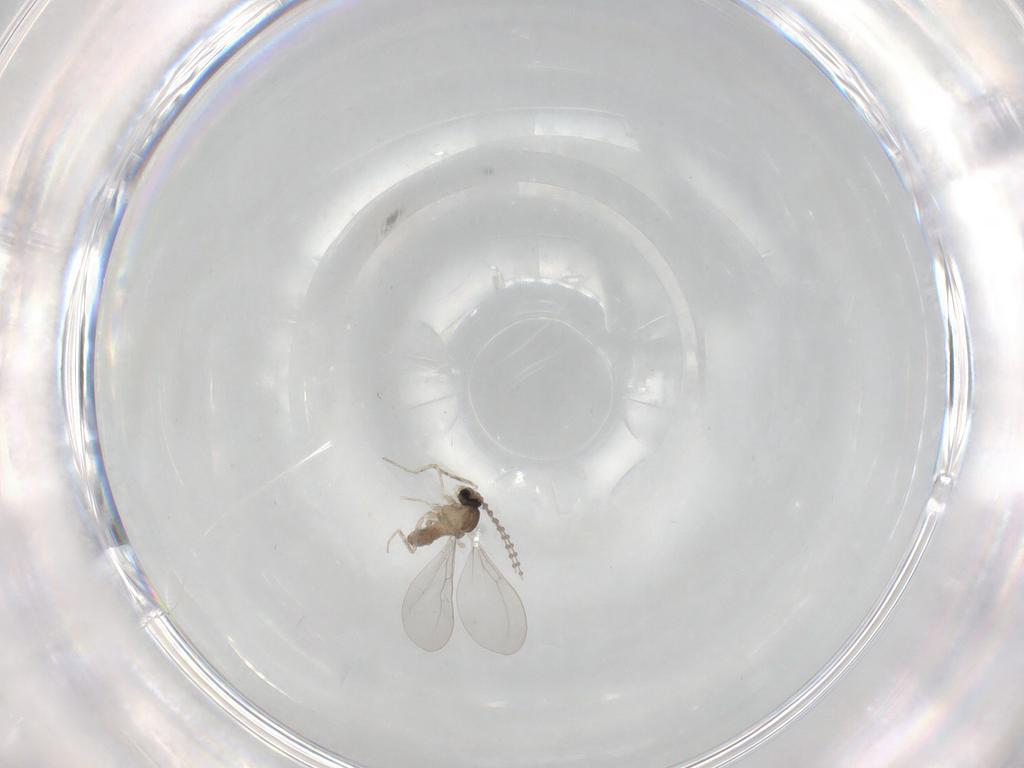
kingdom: Animalia
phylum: Arthropoda
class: Insecta
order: Diptera
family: Cecidomyiidae
